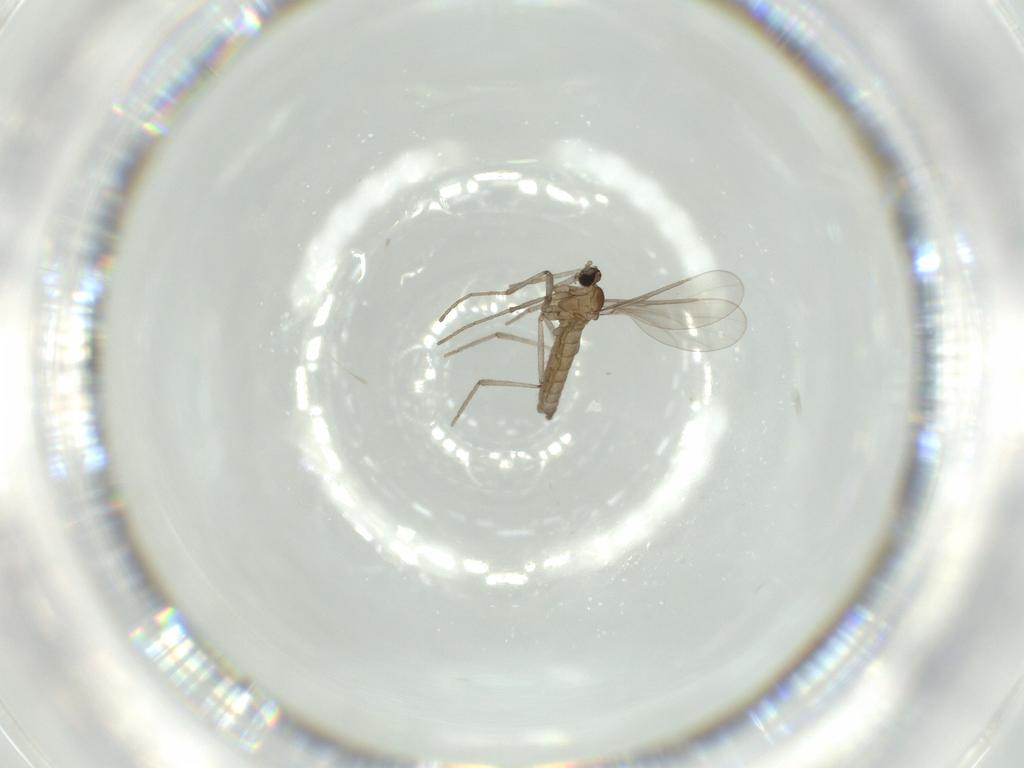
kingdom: Animalia
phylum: Arthropoda
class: Insecta
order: Diptera
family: Cecidomyiidae
